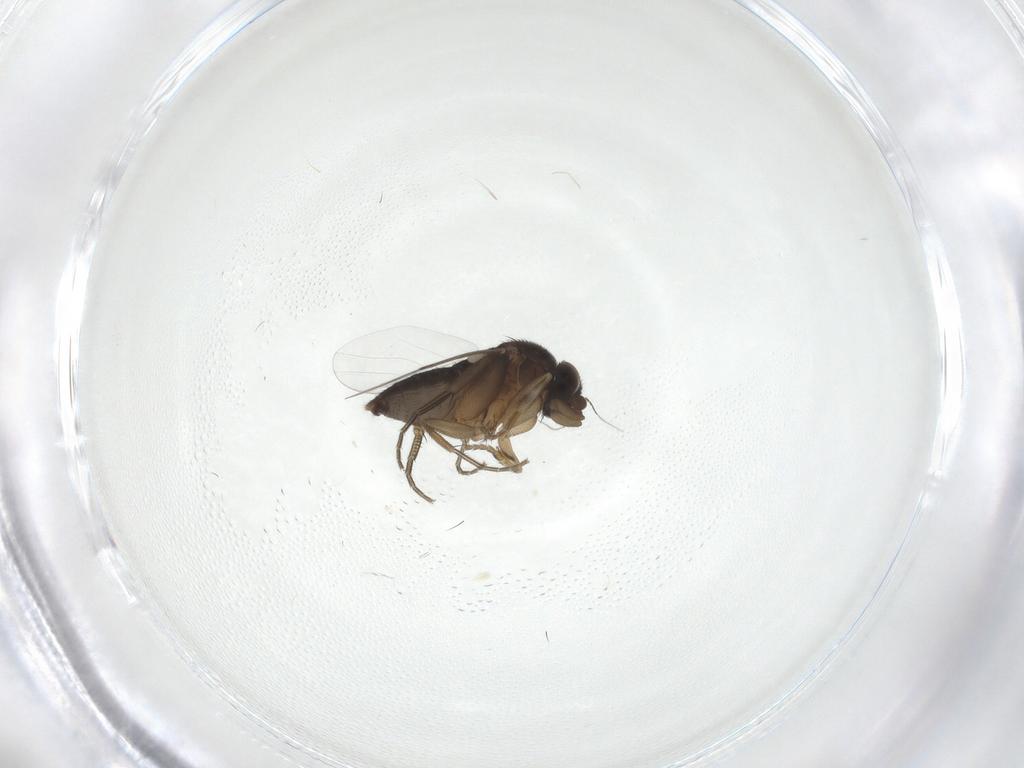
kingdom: Animalia
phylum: Arthropoda
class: Insecta
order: Diptera
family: Phoridae
